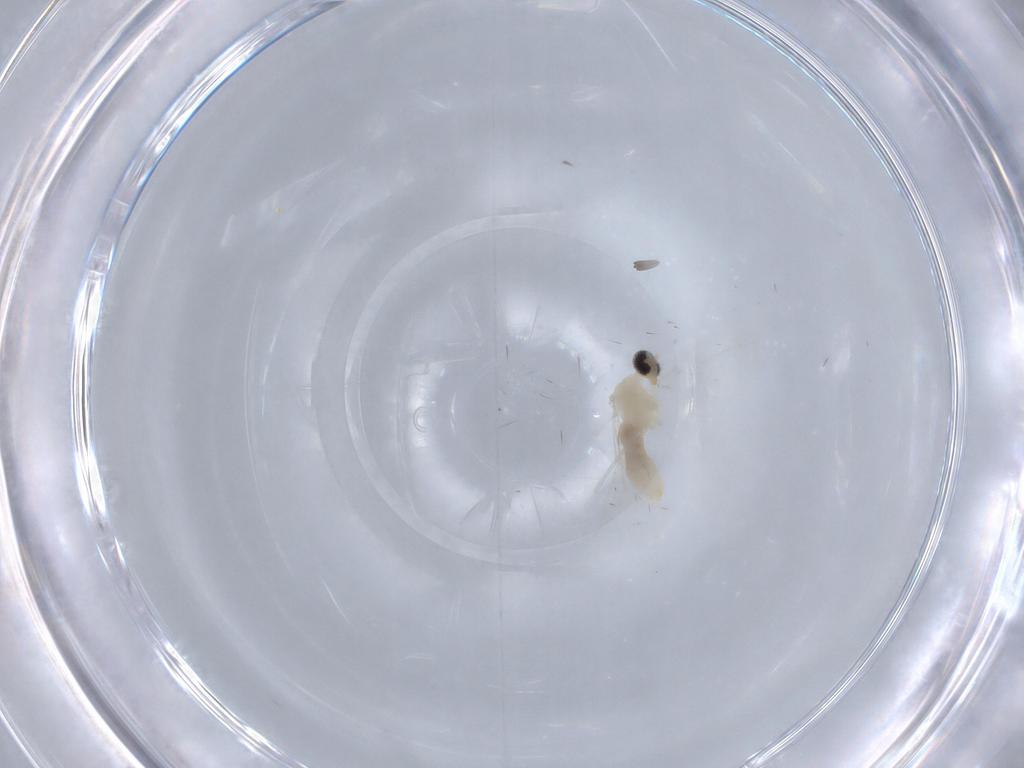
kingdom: Animalia
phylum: Arthropoda
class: Insecta
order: Diptera
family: Cecidomyiidae
